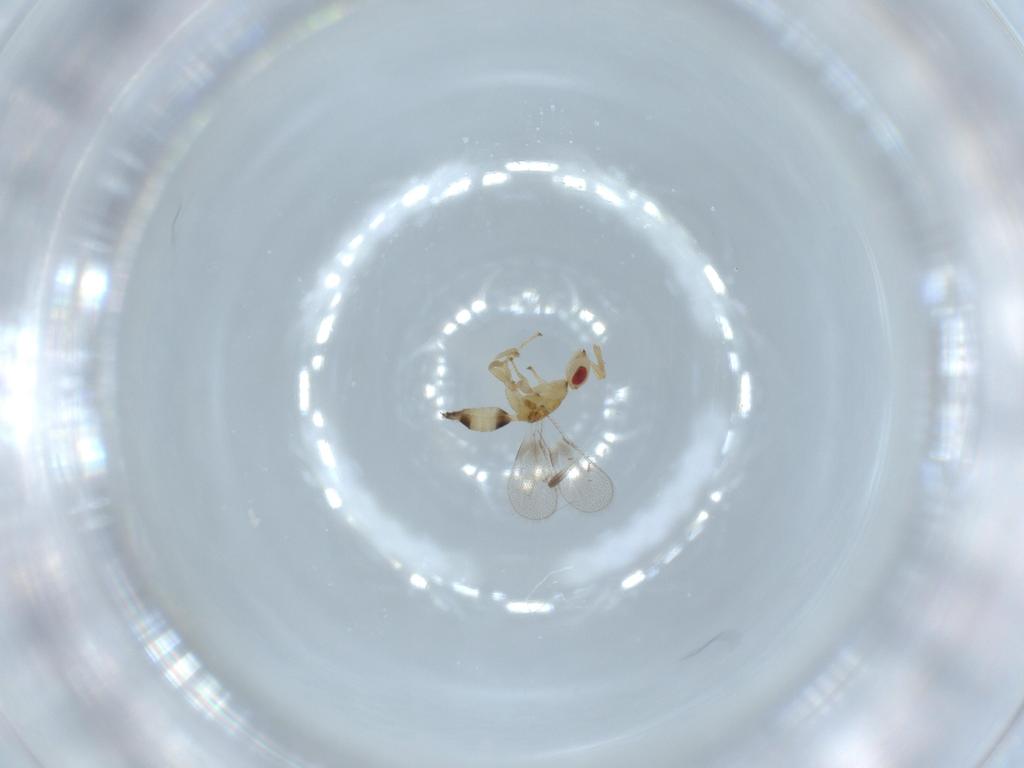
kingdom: Animalia
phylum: Arthropoda
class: Insecta
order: Hymenoptera
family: Torymidae
